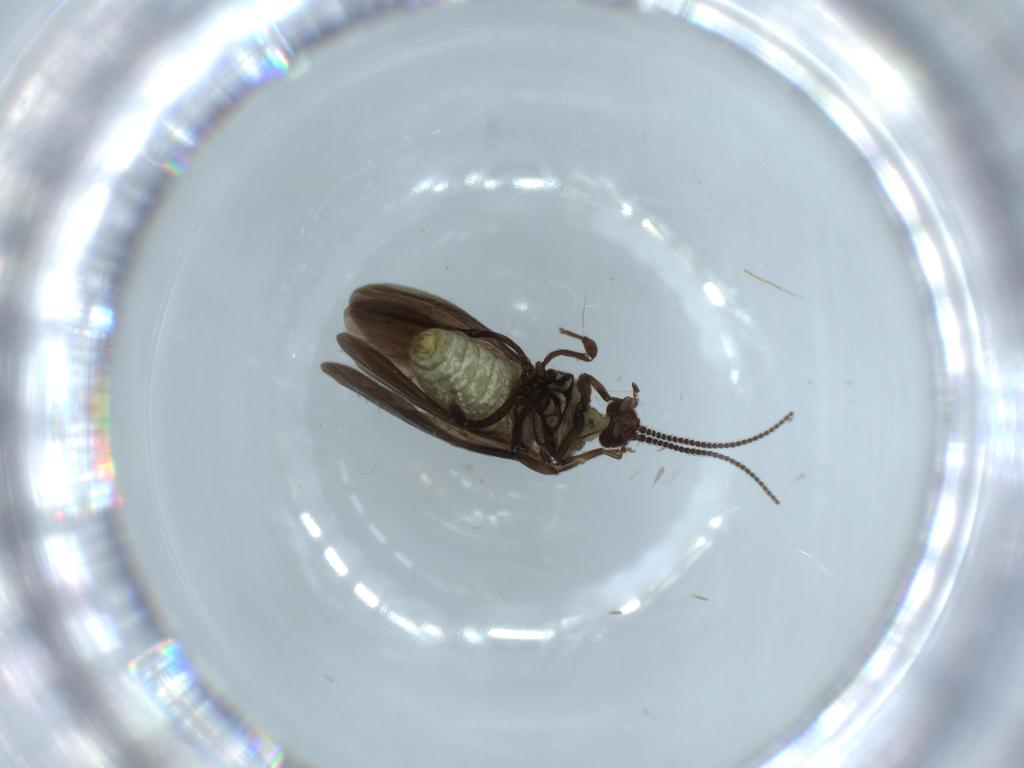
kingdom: Animalia
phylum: Arthropoda
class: Insecta
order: Neuroptera
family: Coniopterygidae
